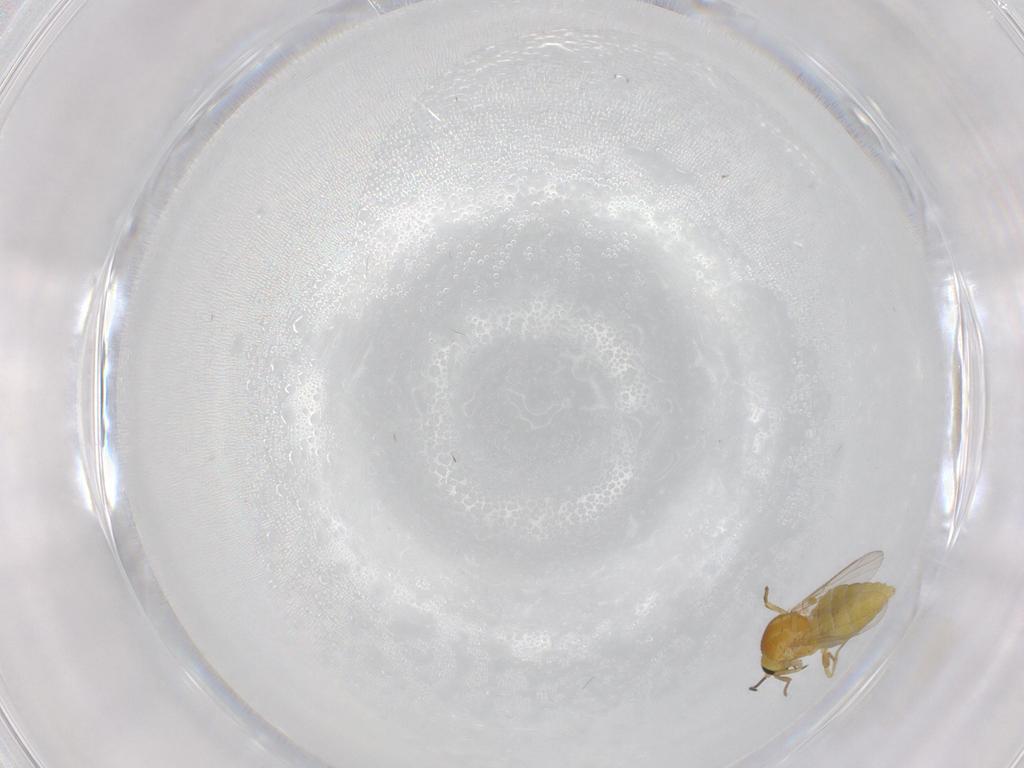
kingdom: Animalia
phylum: Arthropoda
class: Insecta
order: Diptera
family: Ceratopogonidae
